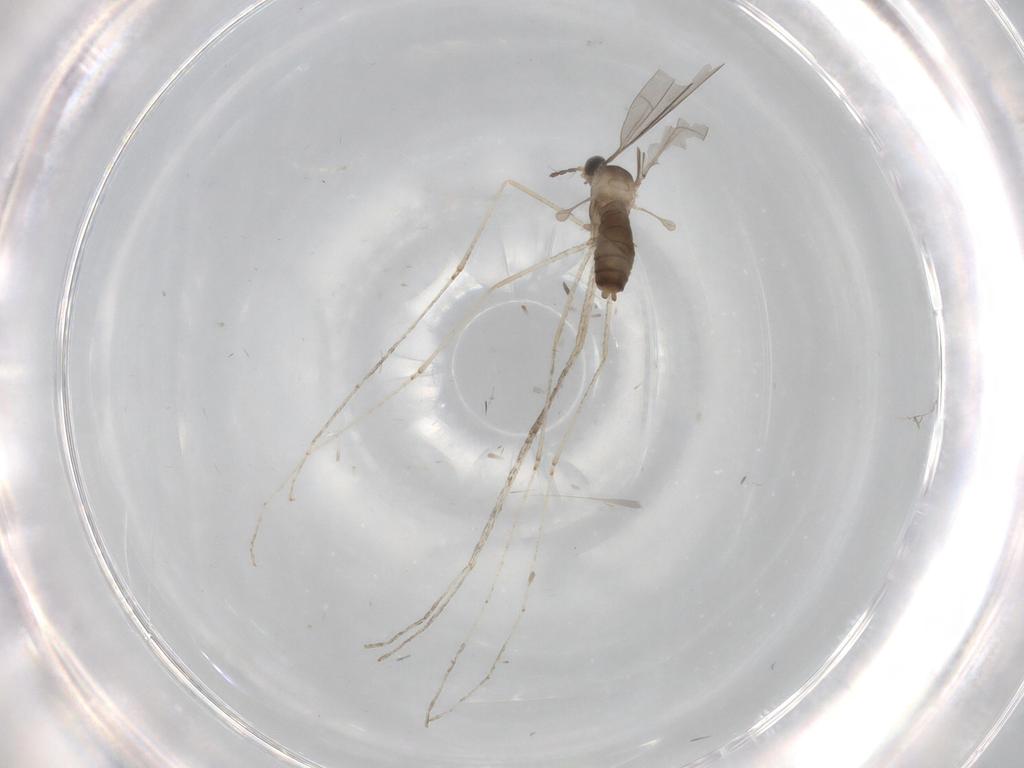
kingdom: Animalia
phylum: Arthropoda
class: Insecta
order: Diptera
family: Cecidomyiidae
